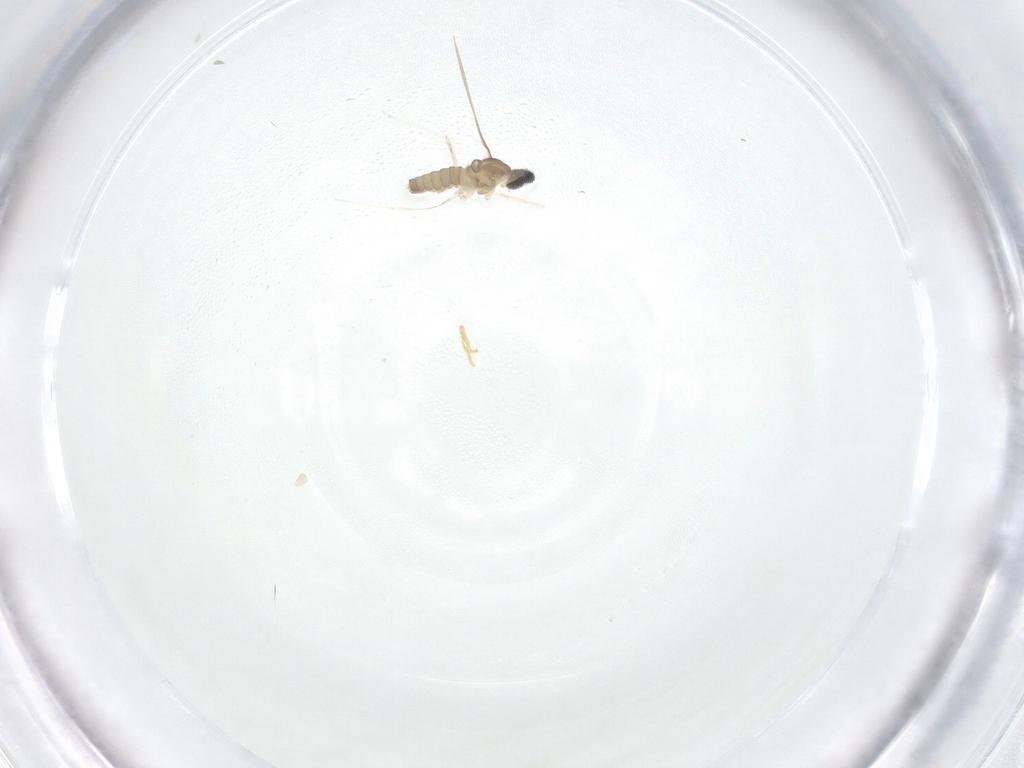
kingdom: Animalia
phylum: Arthropoda
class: Insecta
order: Diptera
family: Cecidomyiidae
